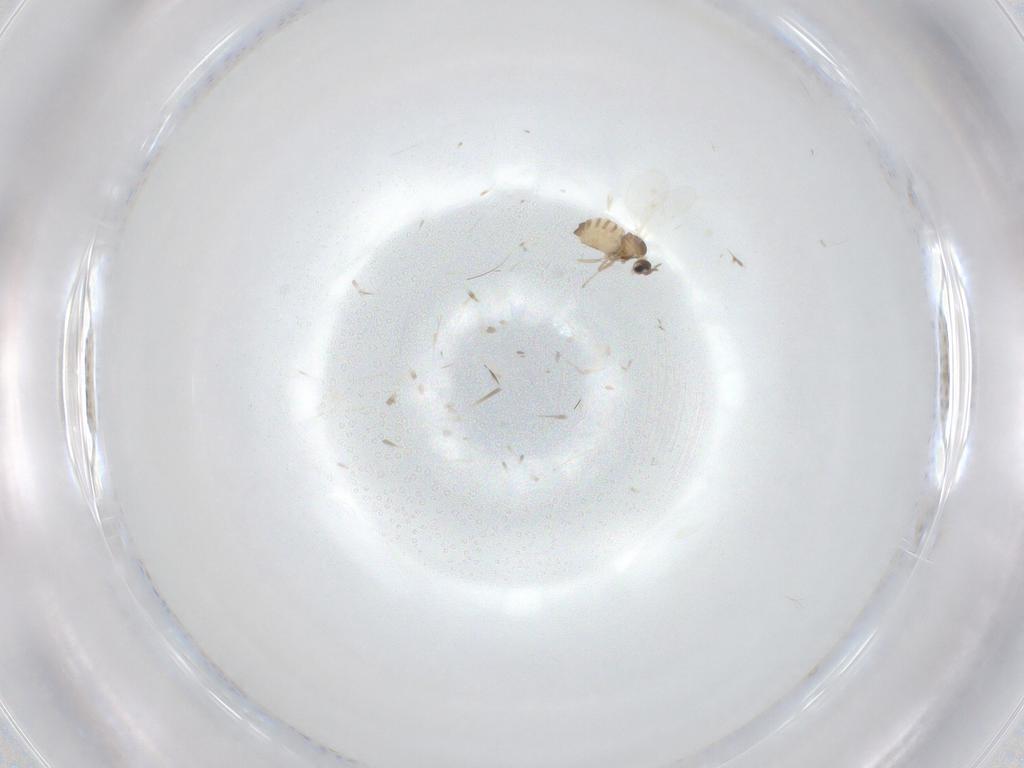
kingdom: Animalia
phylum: Arthropoda
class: Insecta
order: Diptera
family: Cecidomyiidae
